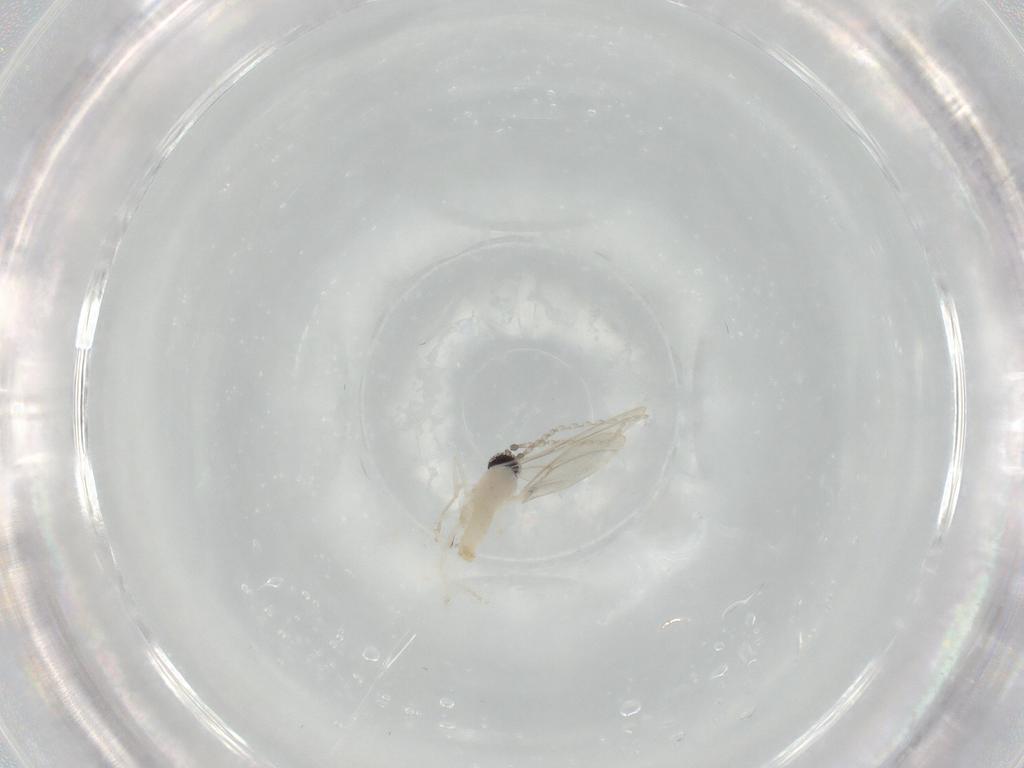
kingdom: Animalia
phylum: Arthropoda
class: Insecta
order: Diptera
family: Cecidomyiidae
